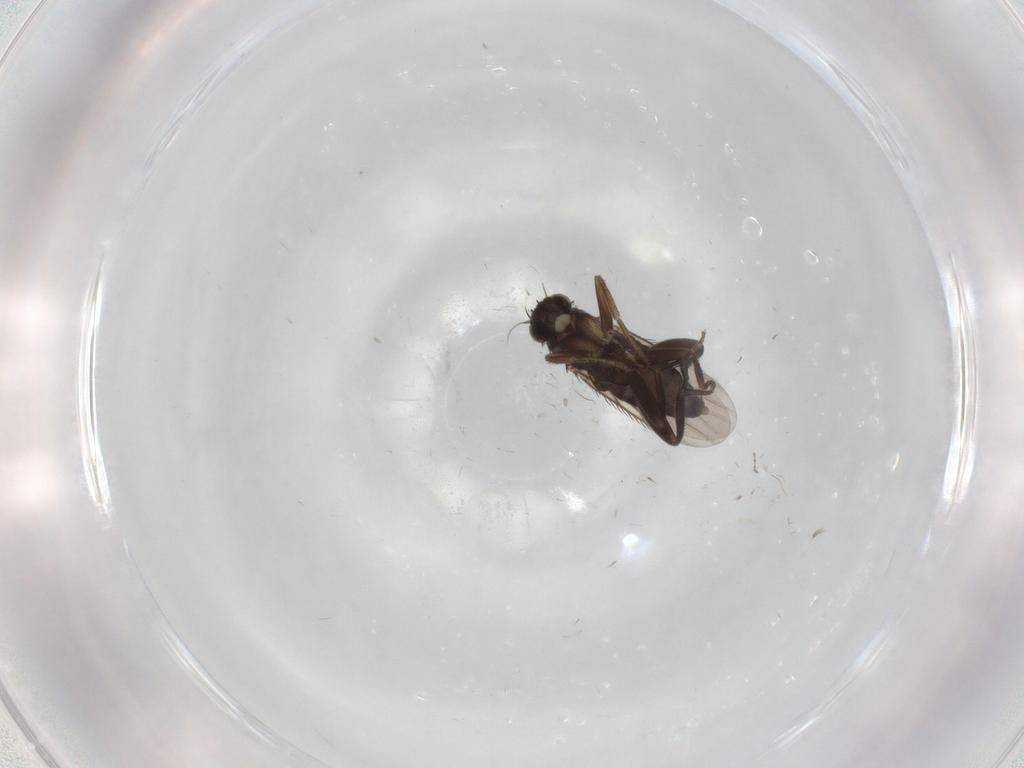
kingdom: Animalia
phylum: Arthropoda
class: Insecta
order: Diptera
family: Phoridae
